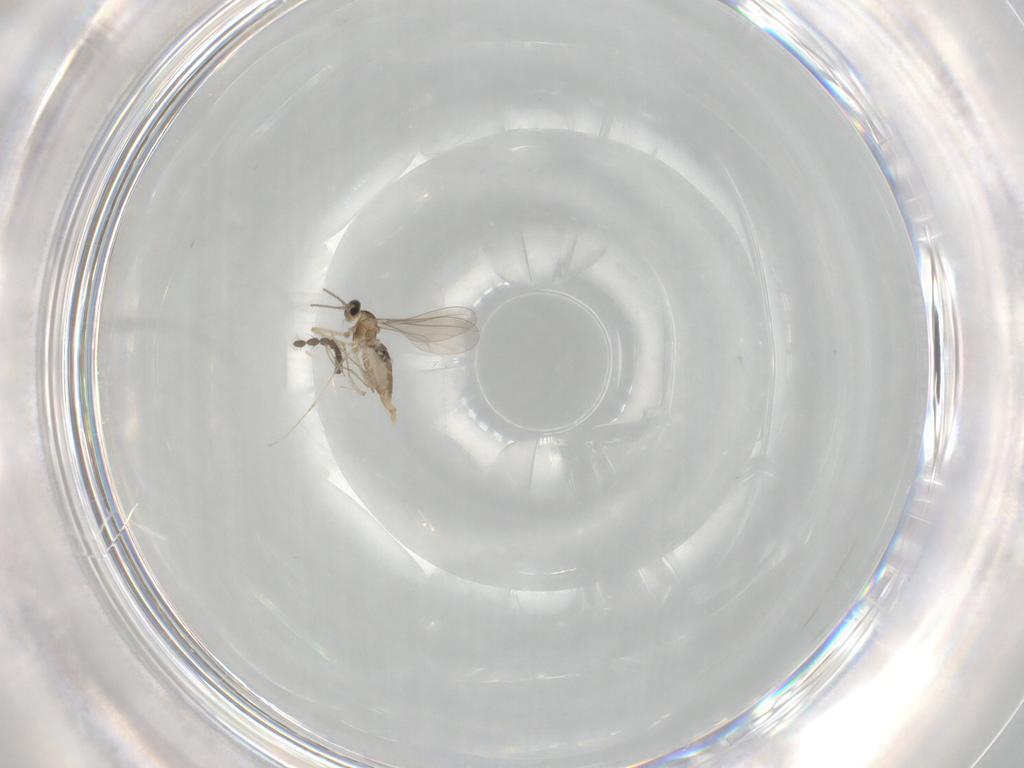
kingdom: Animalia
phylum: Arthropoda
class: Insecta
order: Diptera
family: Limoniidae
